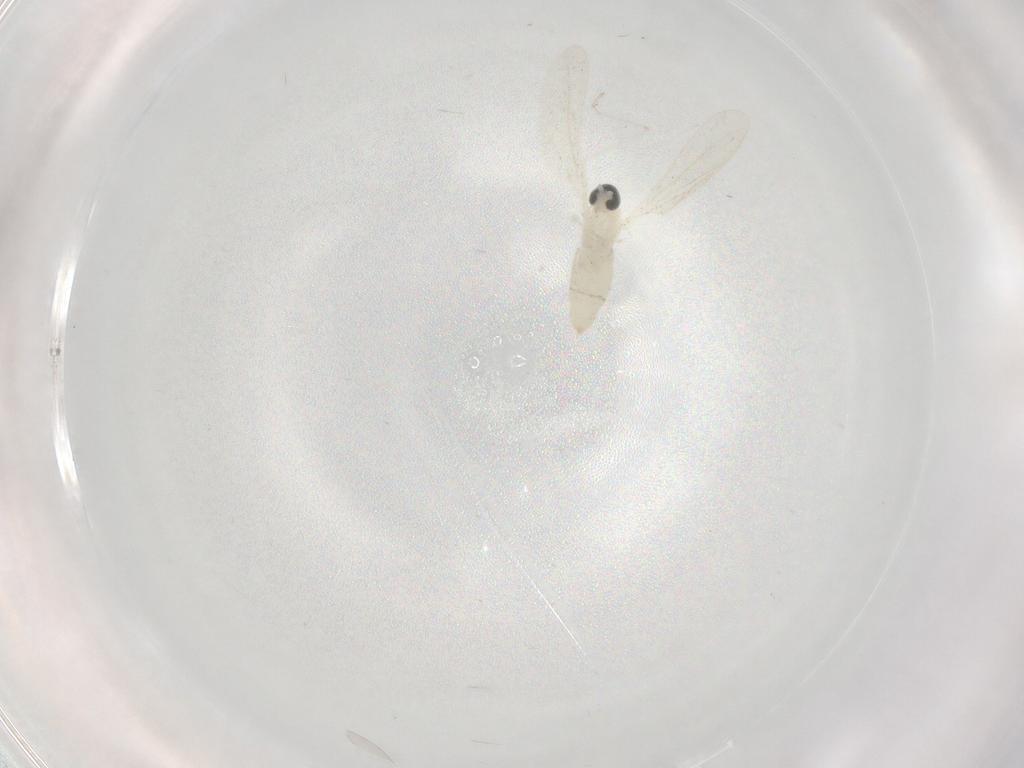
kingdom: Animalia
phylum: Arthropoda
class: Insecta
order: Diptera
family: Cecidomyiidae
